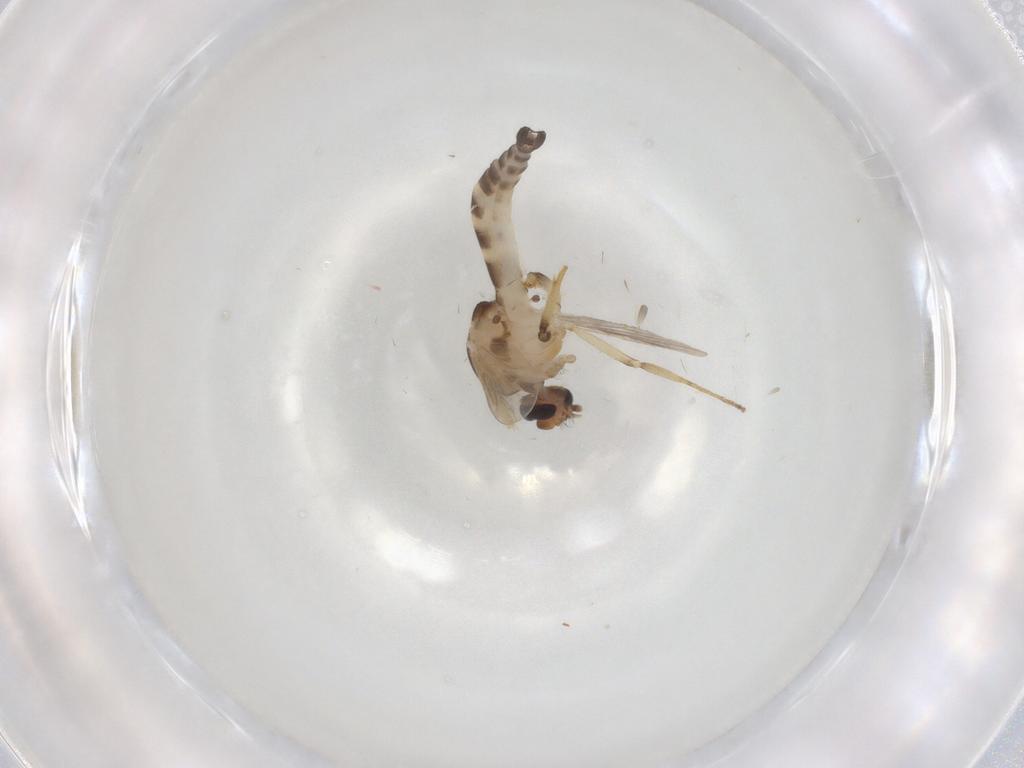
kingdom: Animalia
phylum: Arthropoda
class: Insecta
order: Diptera
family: Ceratopogonidae
